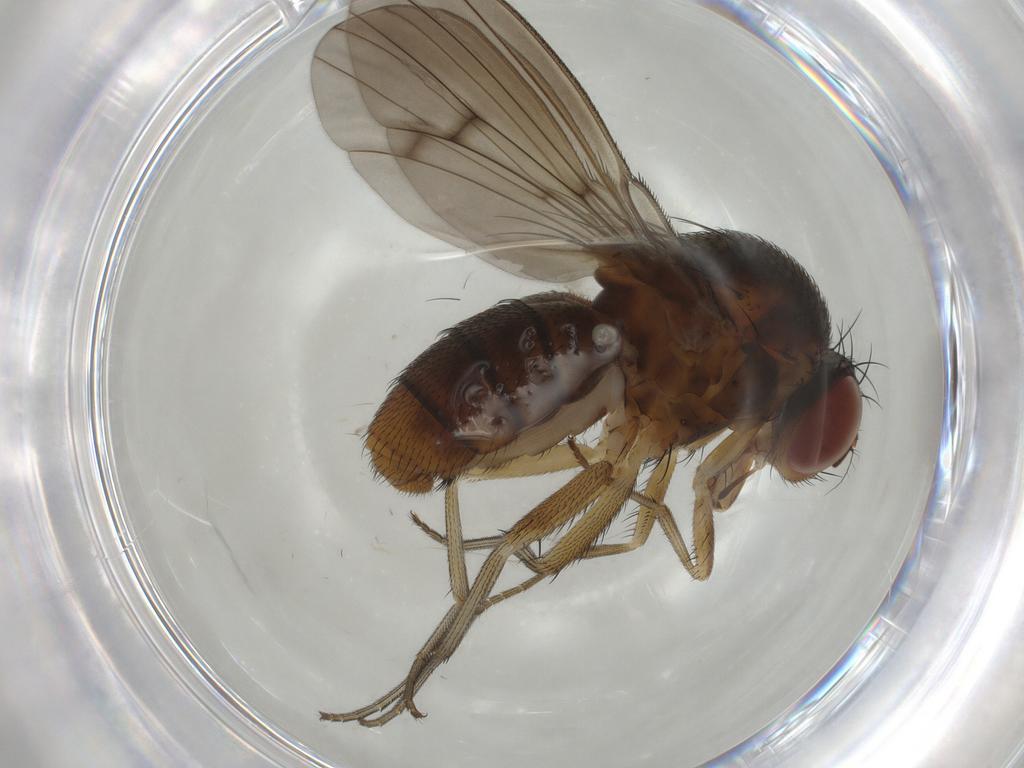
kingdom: Animalia
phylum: Arthropoda
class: Insecta
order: Diptera
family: Curtonotidae
